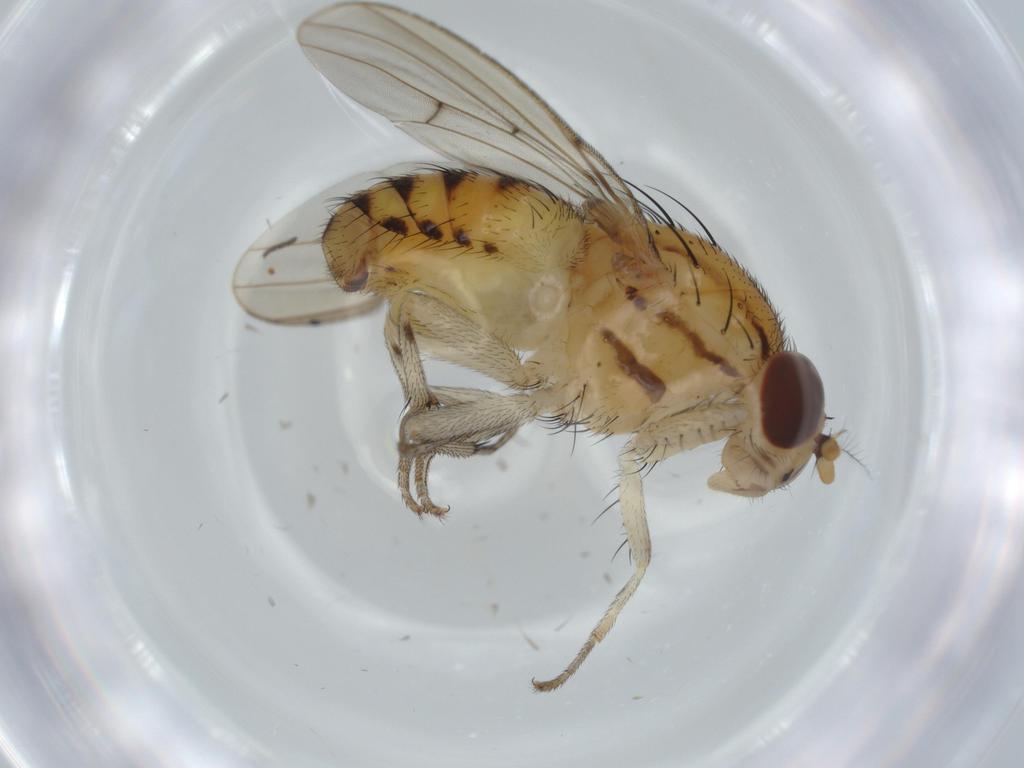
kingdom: Animalia
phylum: Arthropoda
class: Insecta
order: Diptera
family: Lauxaniidae
